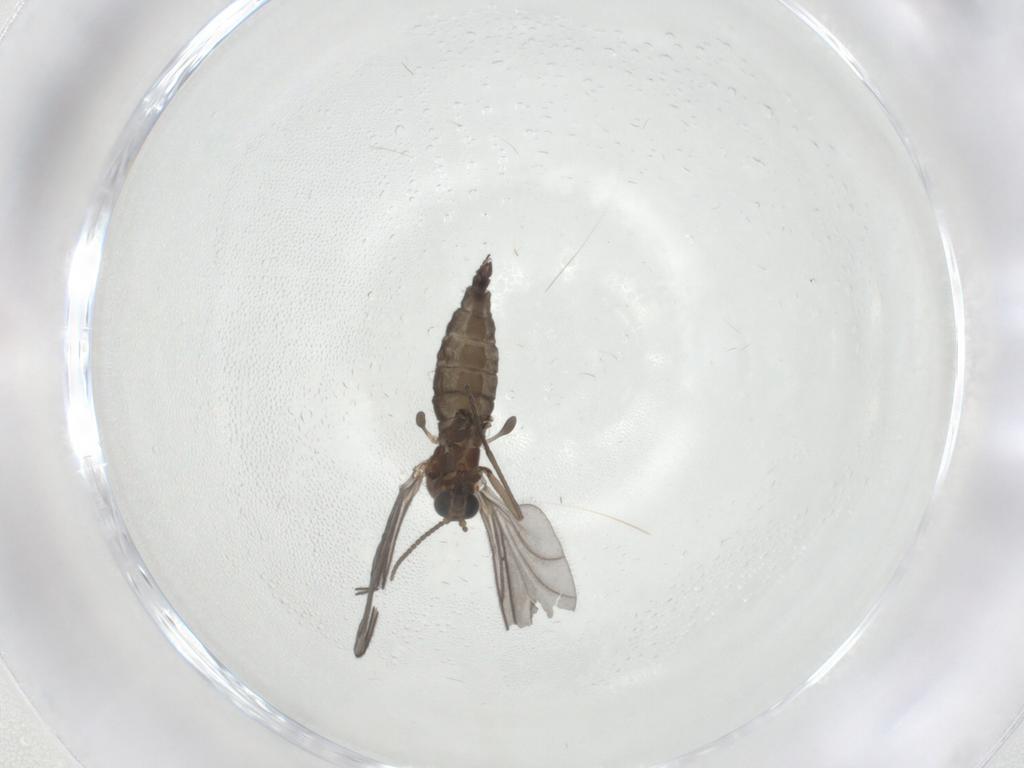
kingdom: Animalia
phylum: Arthropoda
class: Insecta
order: Diptera
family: Sciaridae
